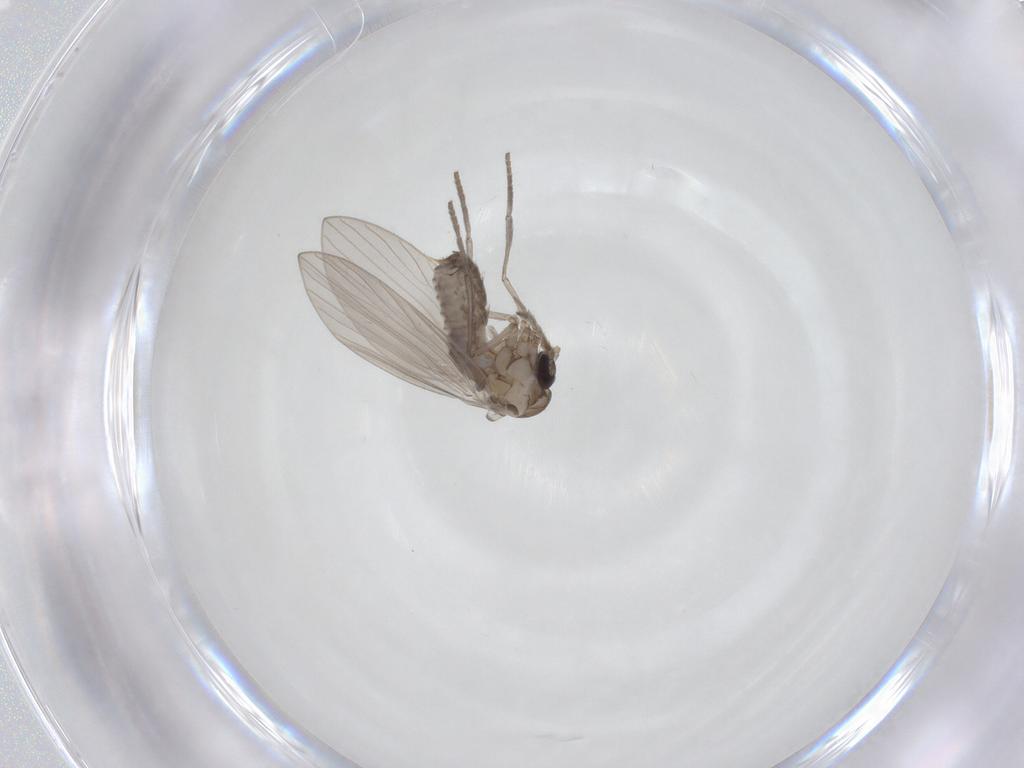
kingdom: Animalia
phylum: Arthropoda
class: Insecta
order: Diptera
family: Psychodidae
